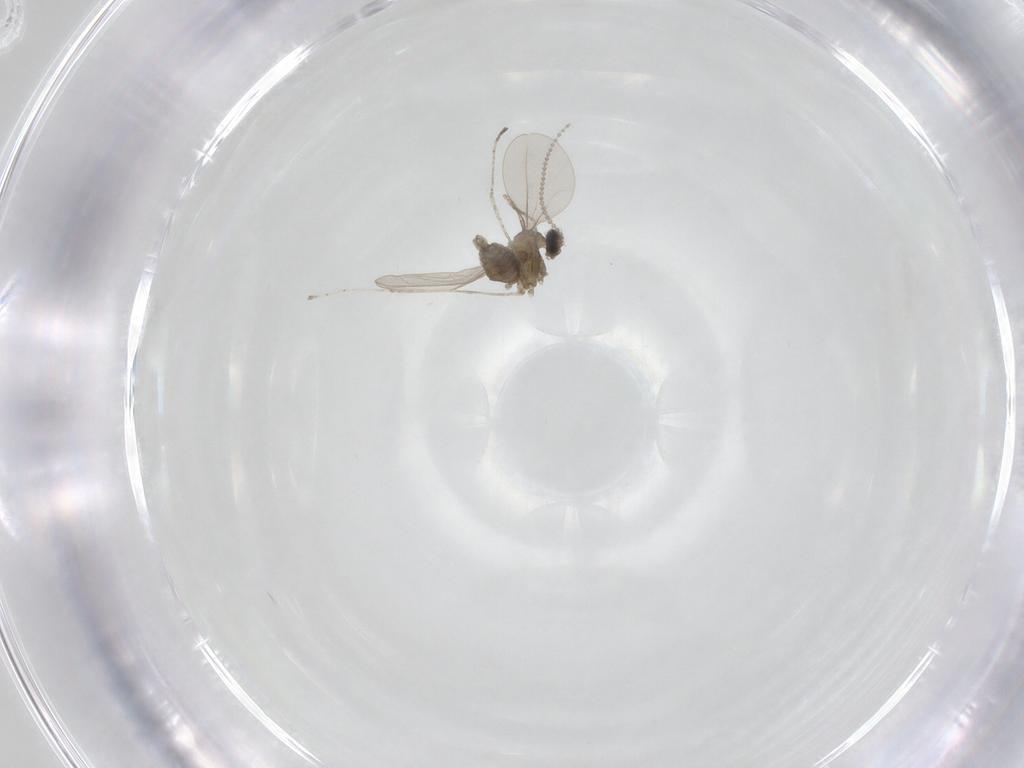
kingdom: Animalia
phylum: Arthropoda
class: Insecta
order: Diptera
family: Cecidomyiidae
